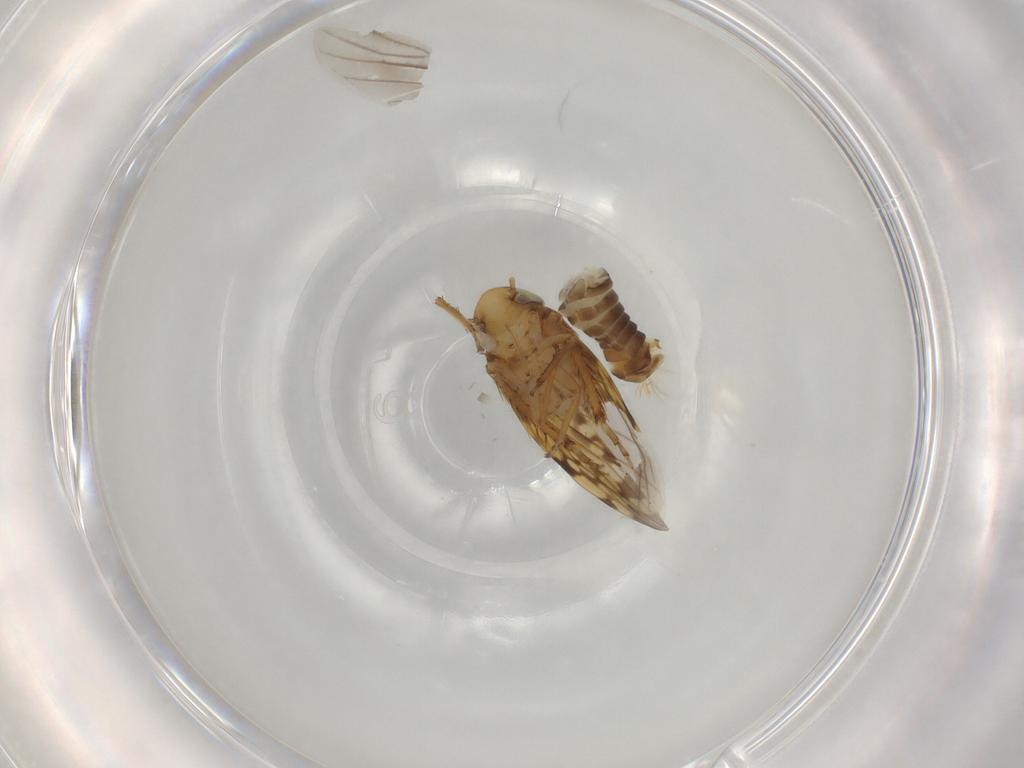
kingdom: Animalia
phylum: Arthropoda
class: Insecta
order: Hemiptera
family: Cicadellidae
